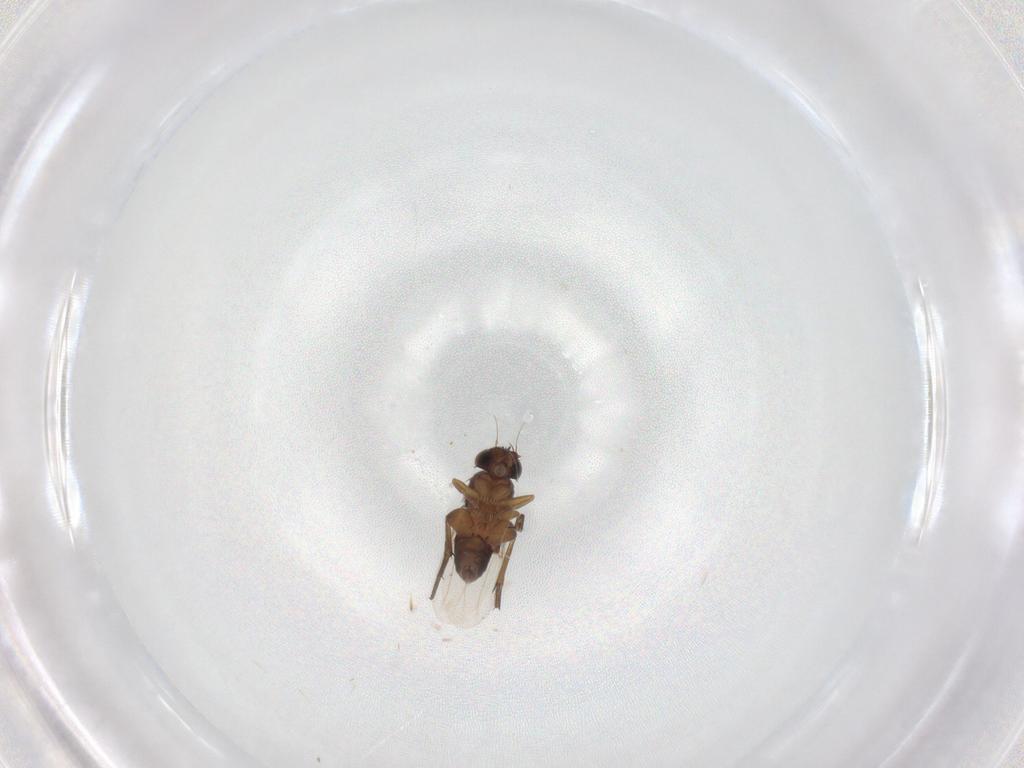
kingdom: Animalia
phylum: Arthropoda
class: Insecta
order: Diptera
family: Phoridae
